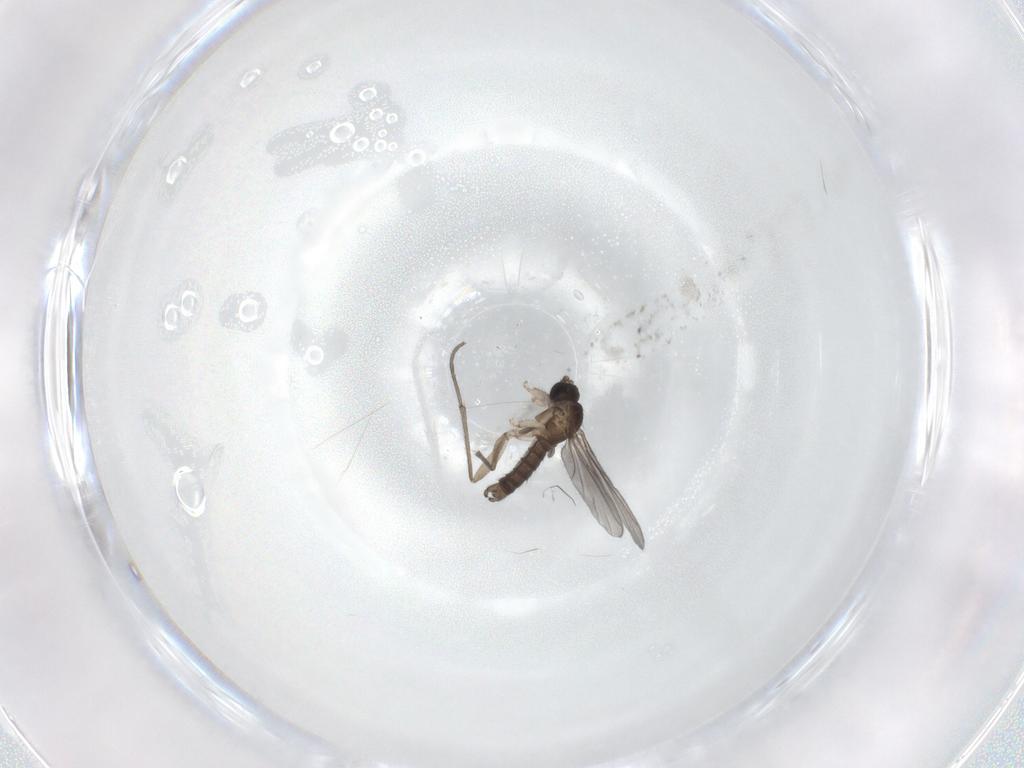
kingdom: Animalia
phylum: Arthropoda
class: Insecta
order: Diptera
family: Sciaridae
